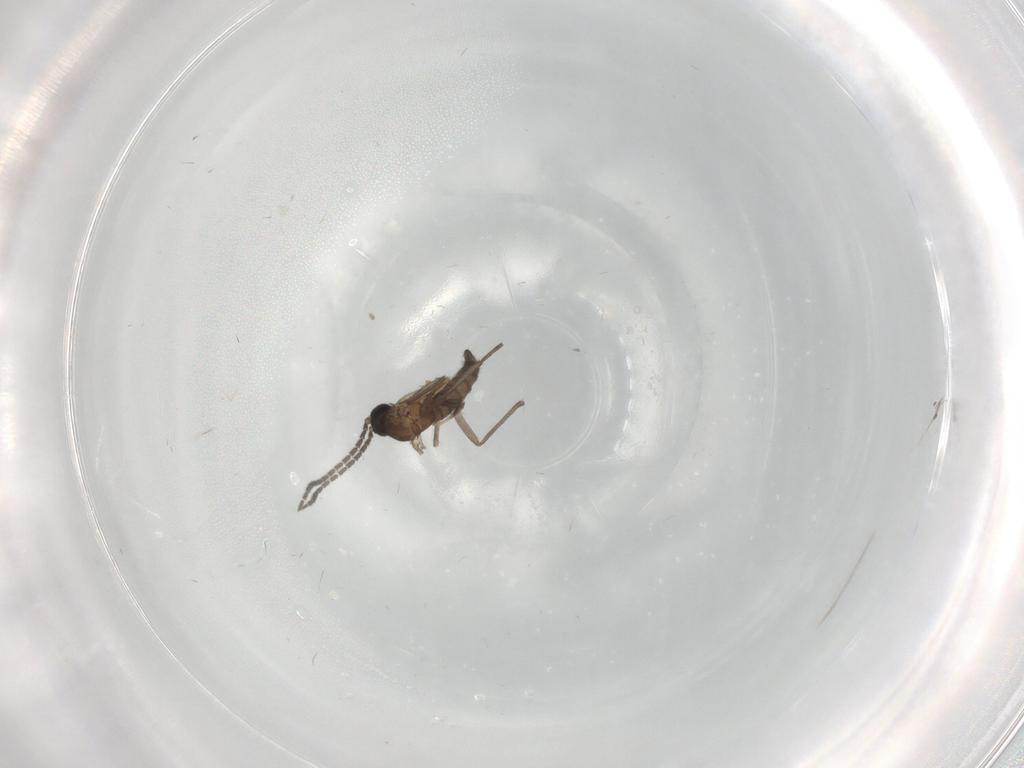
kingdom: Animalia
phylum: Arthropoda
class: Insecta
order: Diptera
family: Sciaridae
